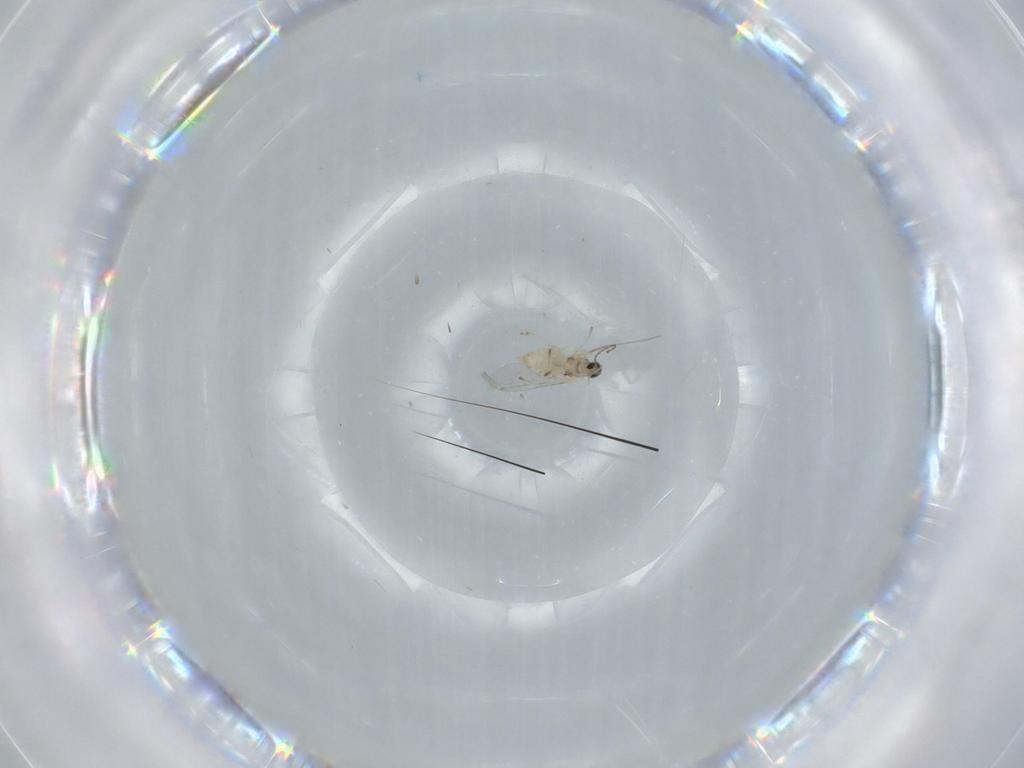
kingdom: Animalia
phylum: Arthropoda
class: Insecta
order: Diptera
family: Cecidomyiidae
